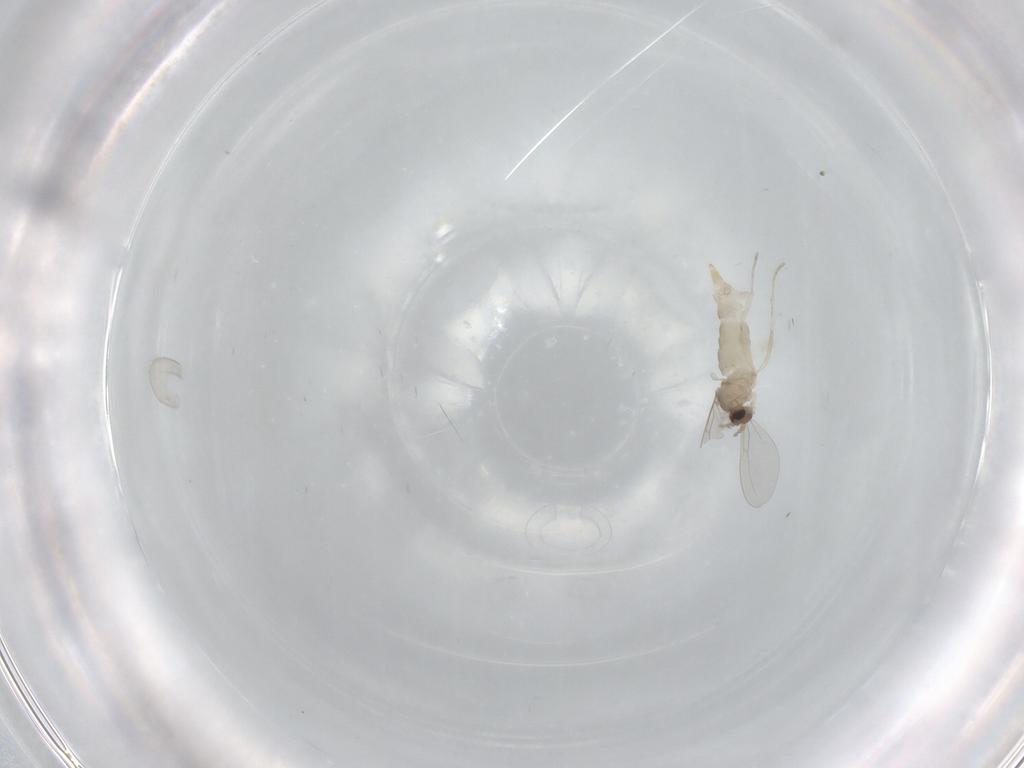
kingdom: Animalia
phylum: Arthropoda
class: Insecta
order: Diptera
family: Cecidomyiidae
